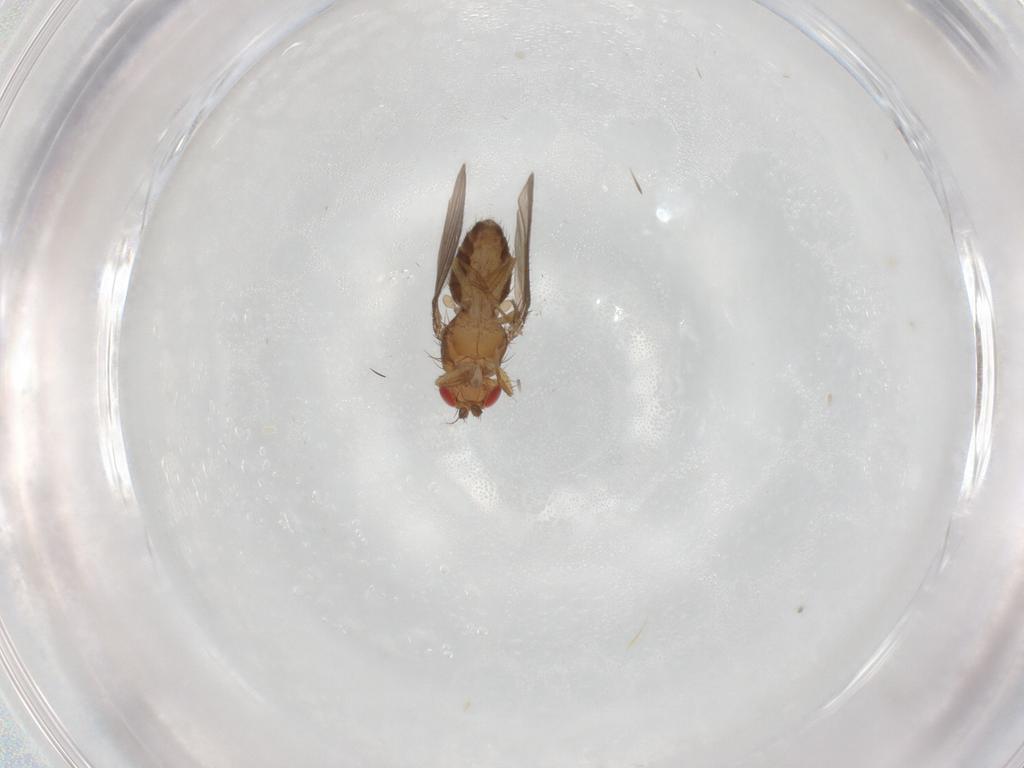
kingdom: Animalia
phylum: Arthropoda
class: Insecta
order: Diptera
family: Drosophilidae
